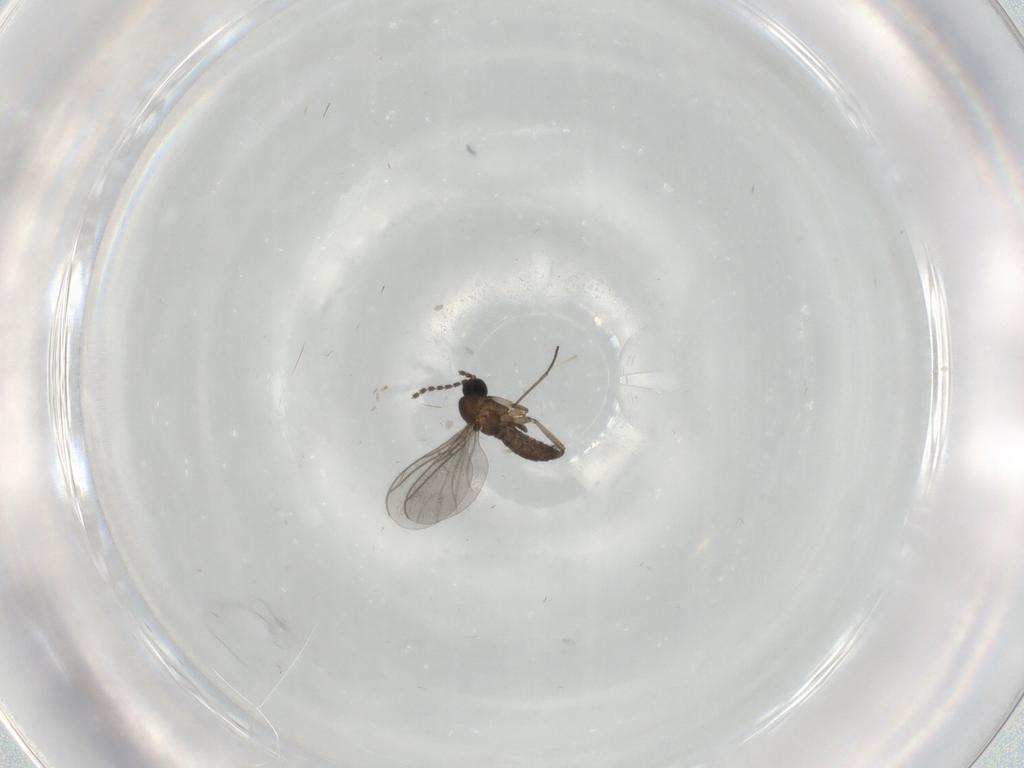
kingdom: Animalia
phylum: Arthropoda
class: Insecta
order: Diptera
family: Sciaridae
